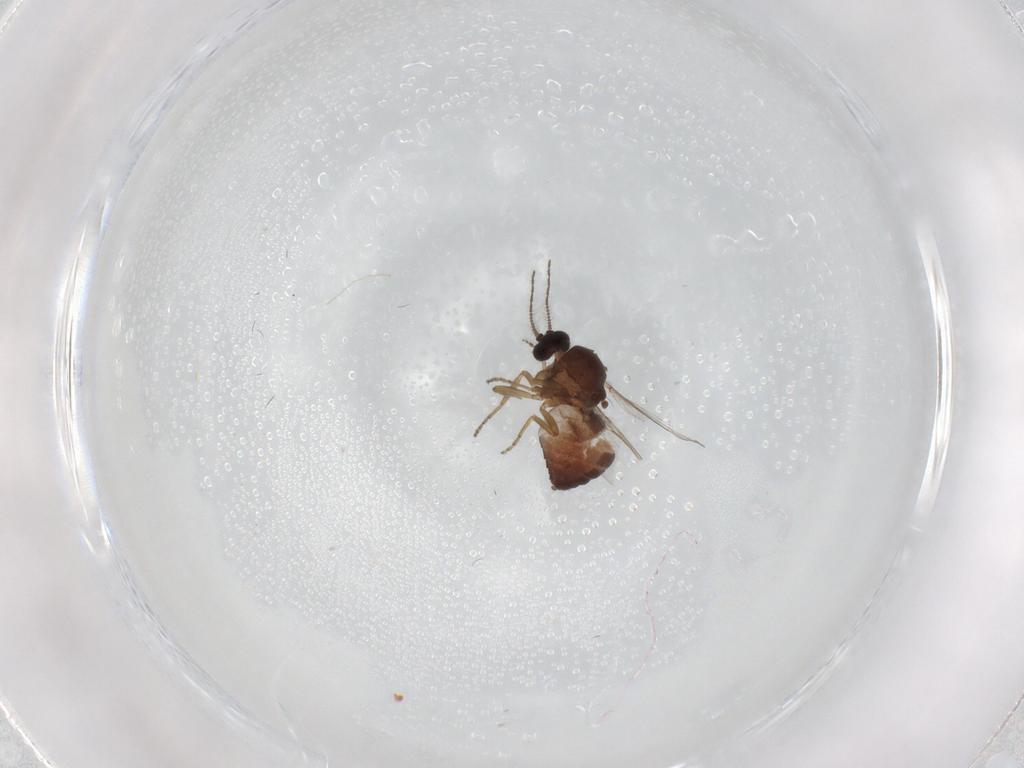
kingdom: Animalia
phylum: Arthropoda
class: Insecta
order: Diptera
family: Ceratopogonidae
